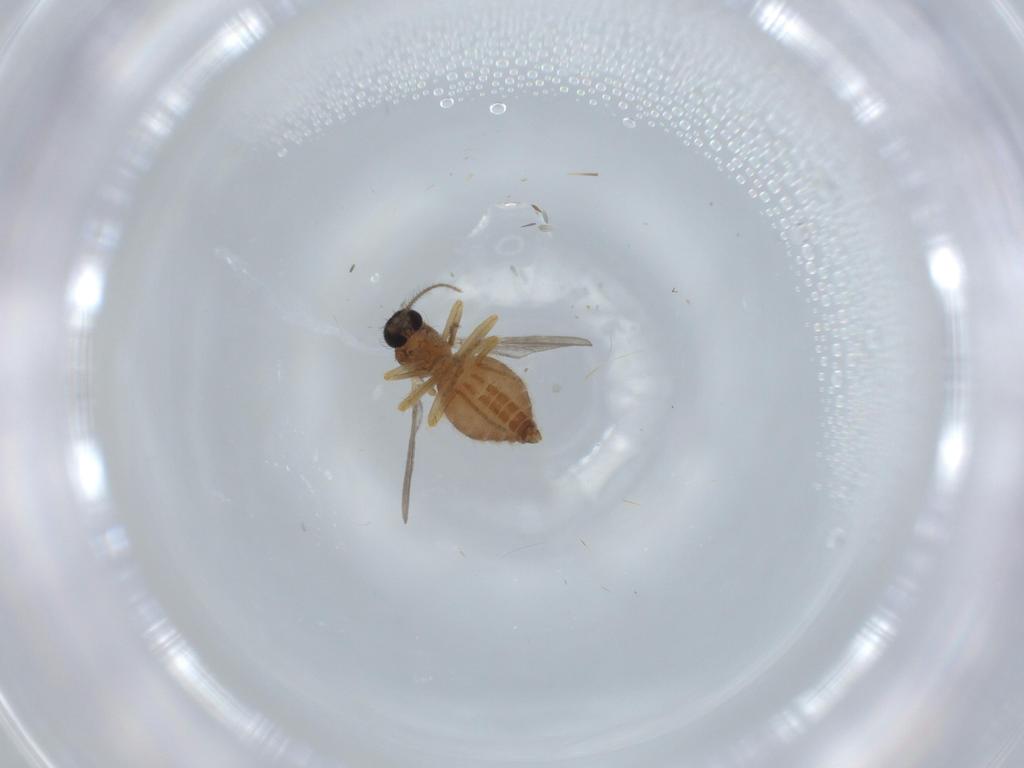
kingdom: Animalia
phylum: Arthropoda
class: Insecta
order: Diptera
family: Ceratopogonidae
